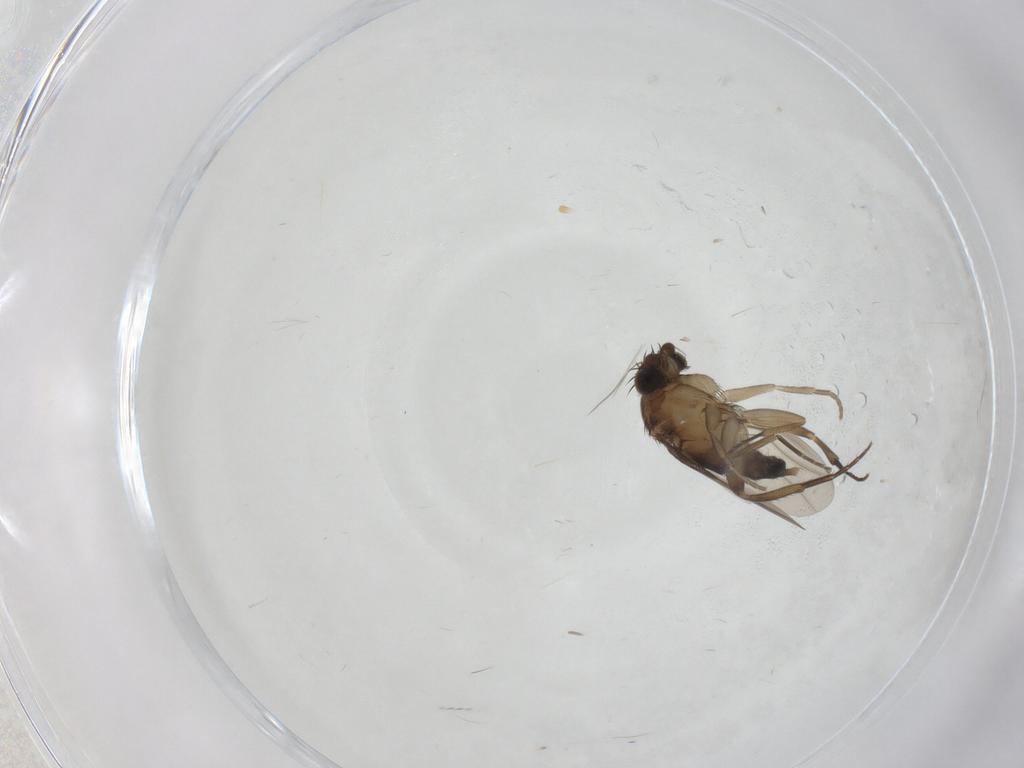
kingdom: Animalia
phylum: Arthropoda
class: Insecta
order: Diptera
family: Phoridae
